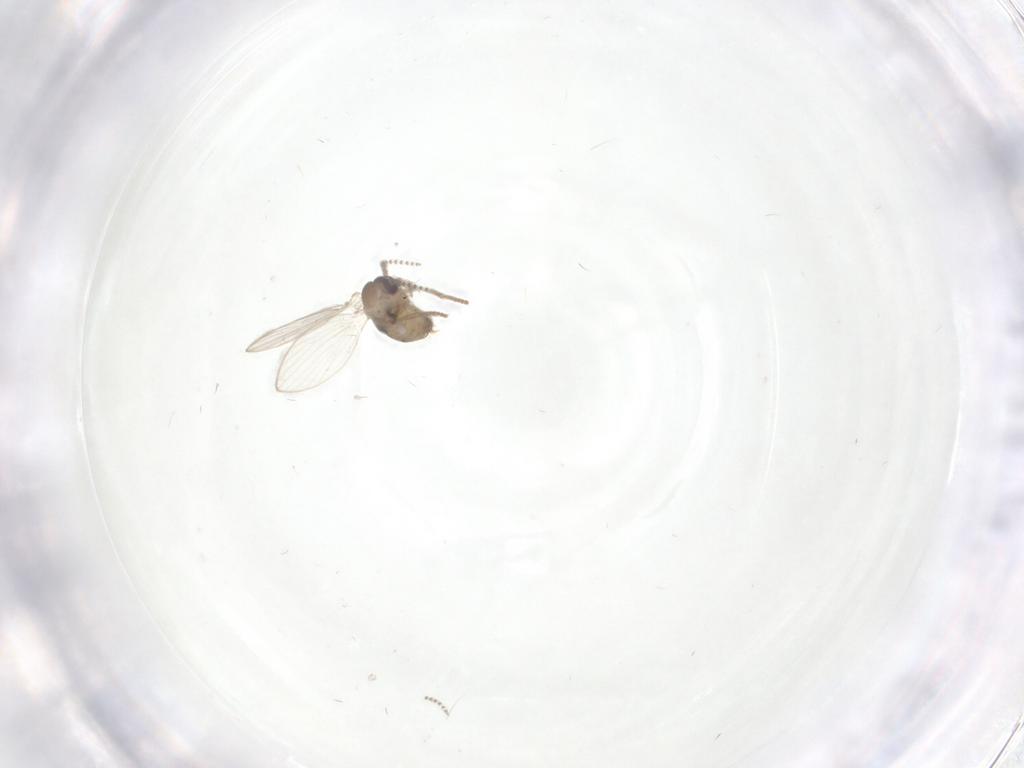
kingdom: Animalia
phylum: Arthropoda
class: Insecta
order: Diptera
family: Psychodidae
